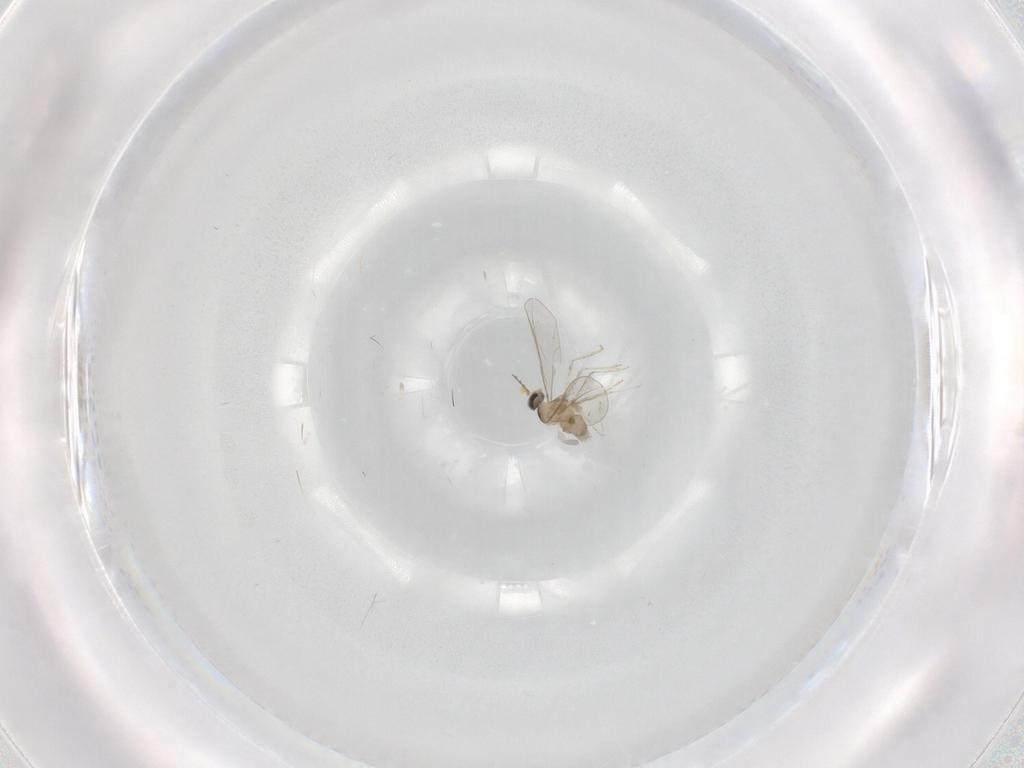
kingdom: Animalia
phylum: Arthropoda
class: Insecta
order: Diptera
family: Cecidomyiidae
